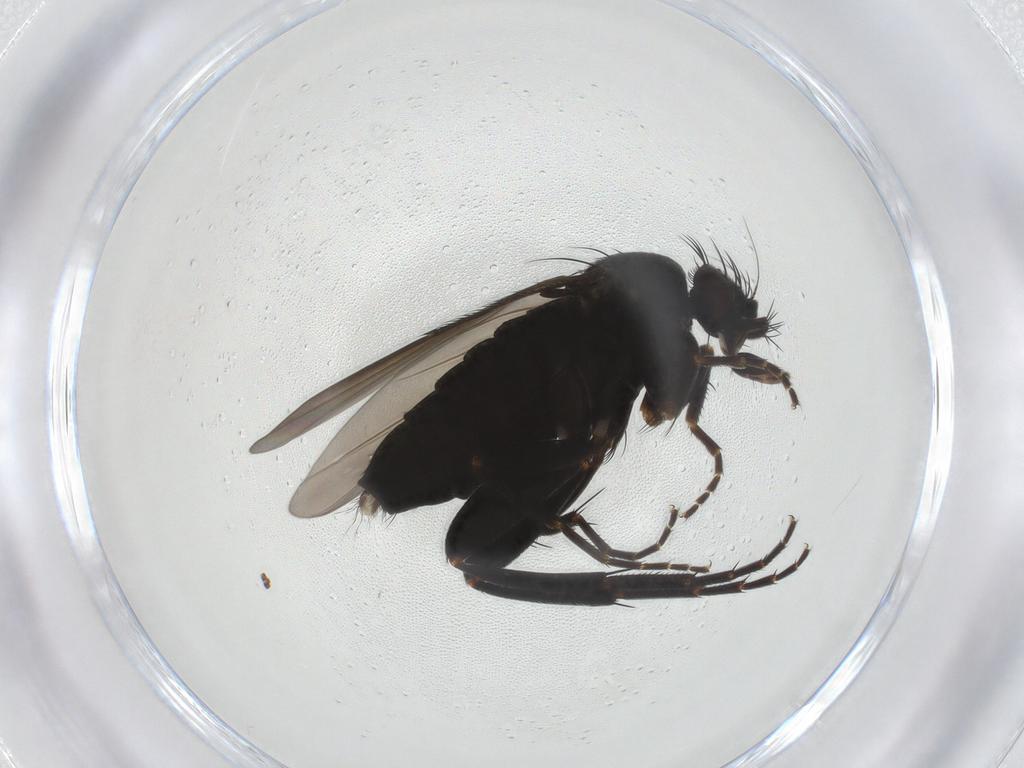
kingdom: Animalia
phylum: Arthropoda
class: Insecta
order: Diptera
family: Phoridae
